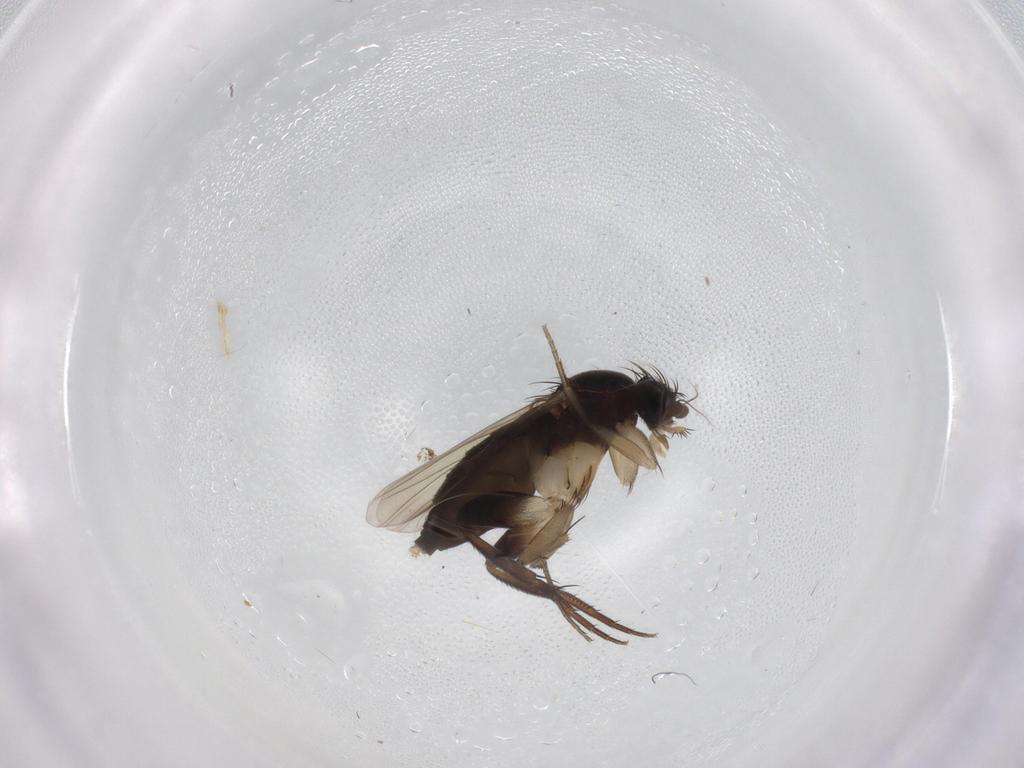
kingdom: Animalia
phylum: Arthropoda
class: Insecta
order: Diptera
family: Phoridae
